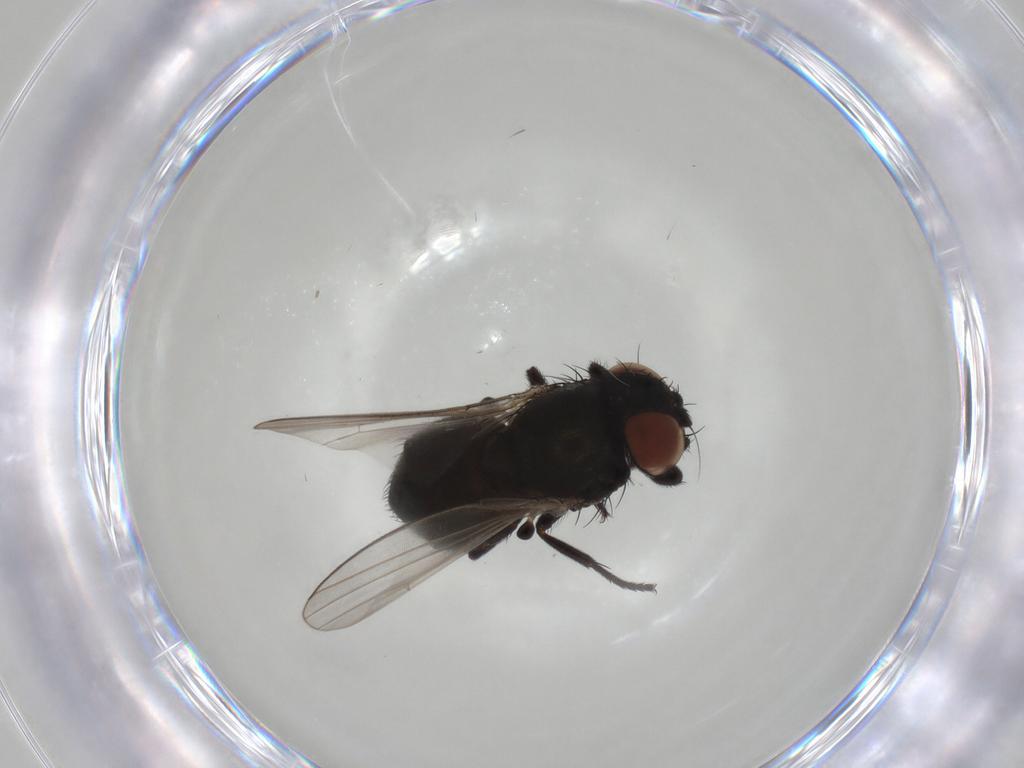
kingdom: Animalia
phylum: Arthropoda
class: Insecta
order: Diptera
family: Milichiidae
